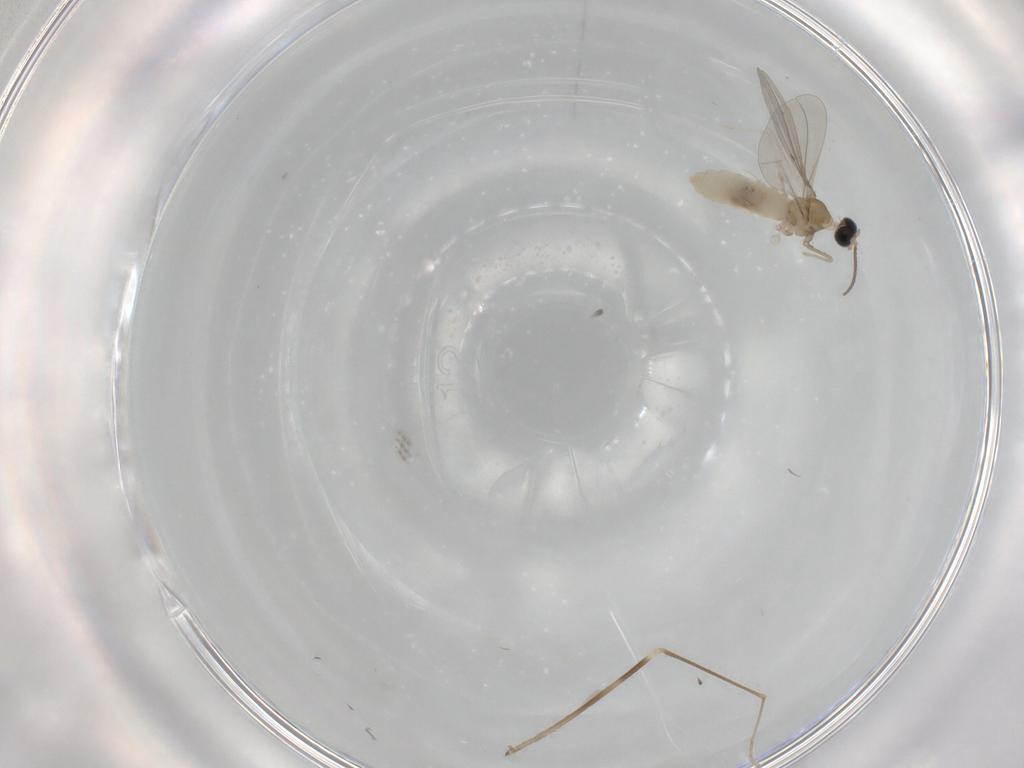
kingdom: Animalia
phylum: Arthropoda
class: Insecta
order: Diptera
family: Cecidomyiidae
